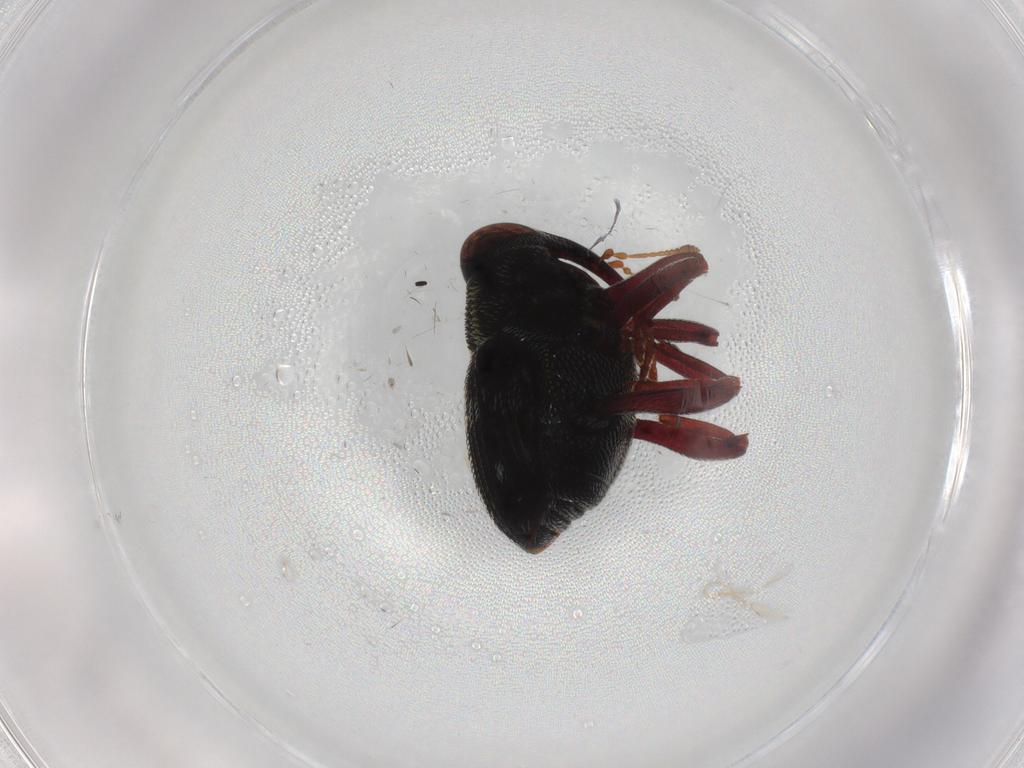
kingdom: Animalia
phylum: Arthropoda
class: Insecta
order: Coleoptera
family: Curculionidae
